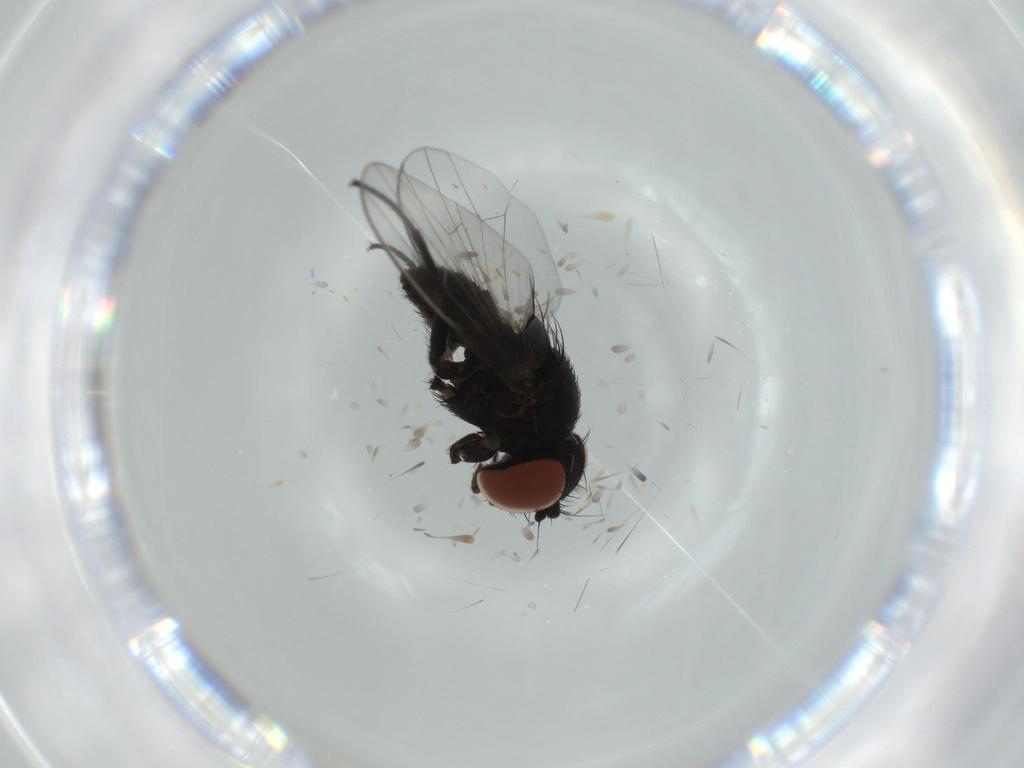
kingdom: Animalia
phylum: Arthropoda
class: Insecta
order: Diptera
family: Milichiidae
